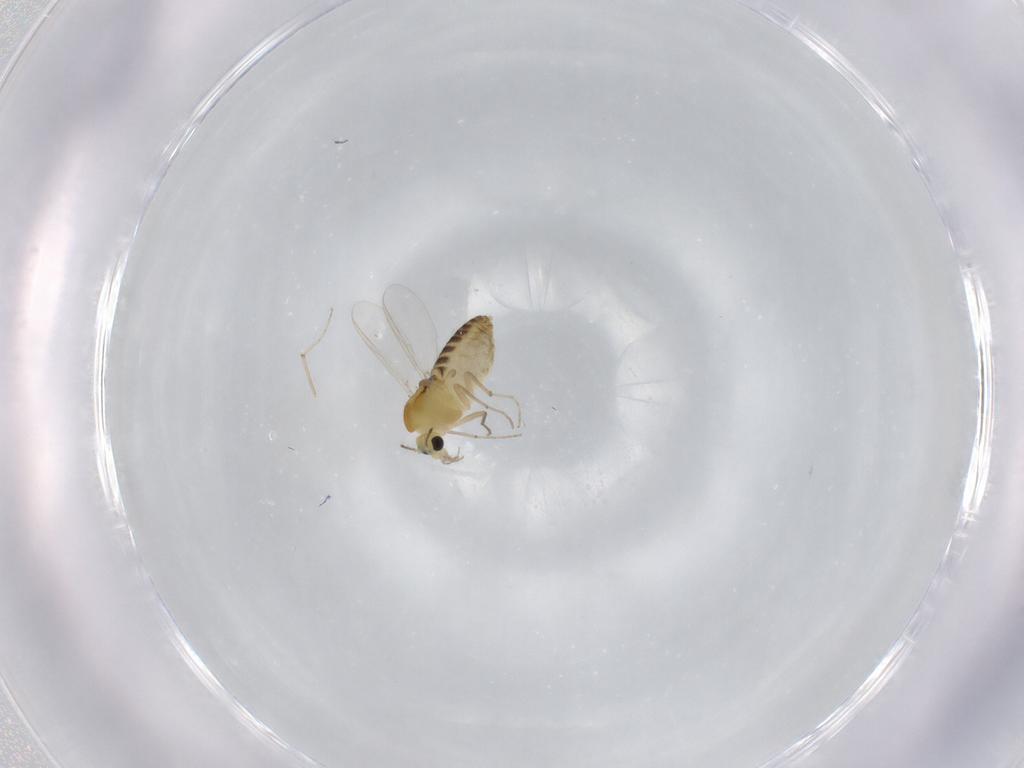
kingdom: Animalia
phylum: Arthropoda
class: Insecta
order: Diptera
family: Chironomidae
